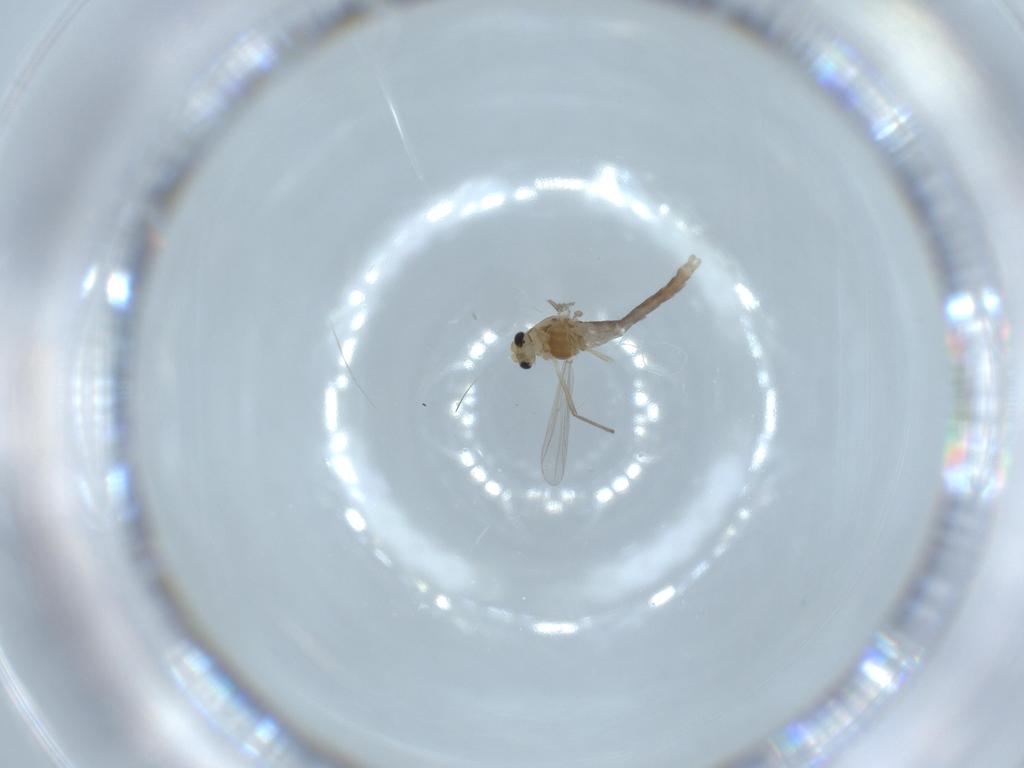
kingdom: Animalia
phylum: Arthropoda
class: Insecta
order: Diptera
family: Chironomidae
